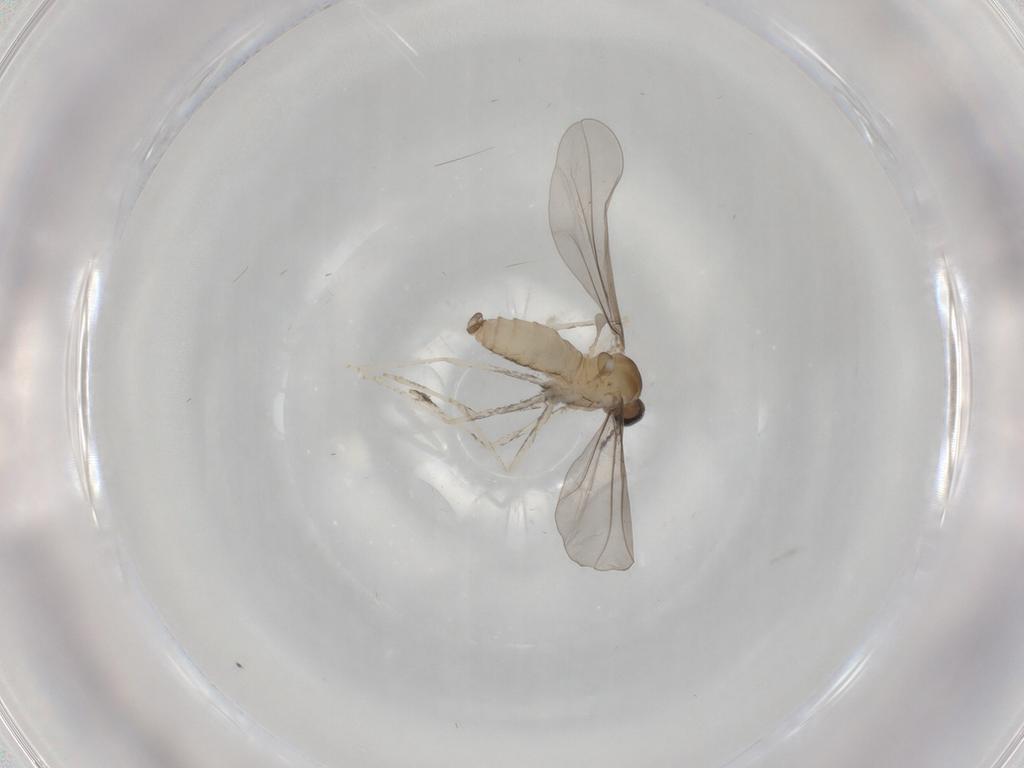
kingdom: Animalia
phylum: Arthropoda
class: Insecta
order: Diptera
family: Cecidomyiidae
